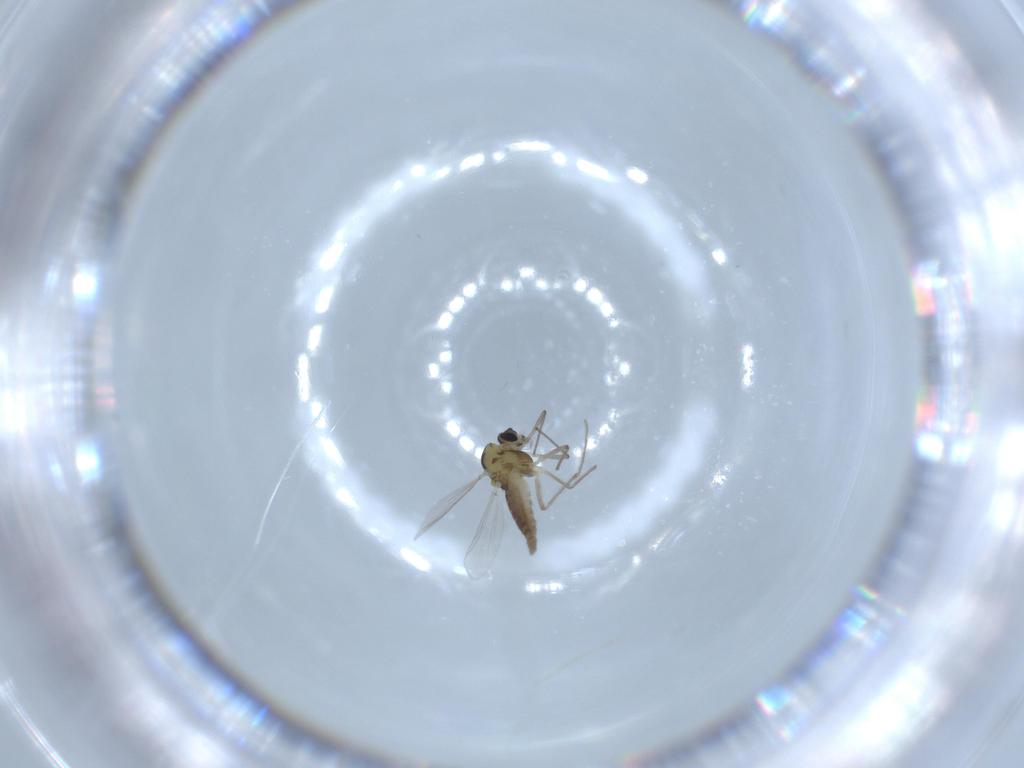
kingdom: Animalia
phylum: Arthropoda
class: Insecta
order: Diptera
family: Chironomidae
